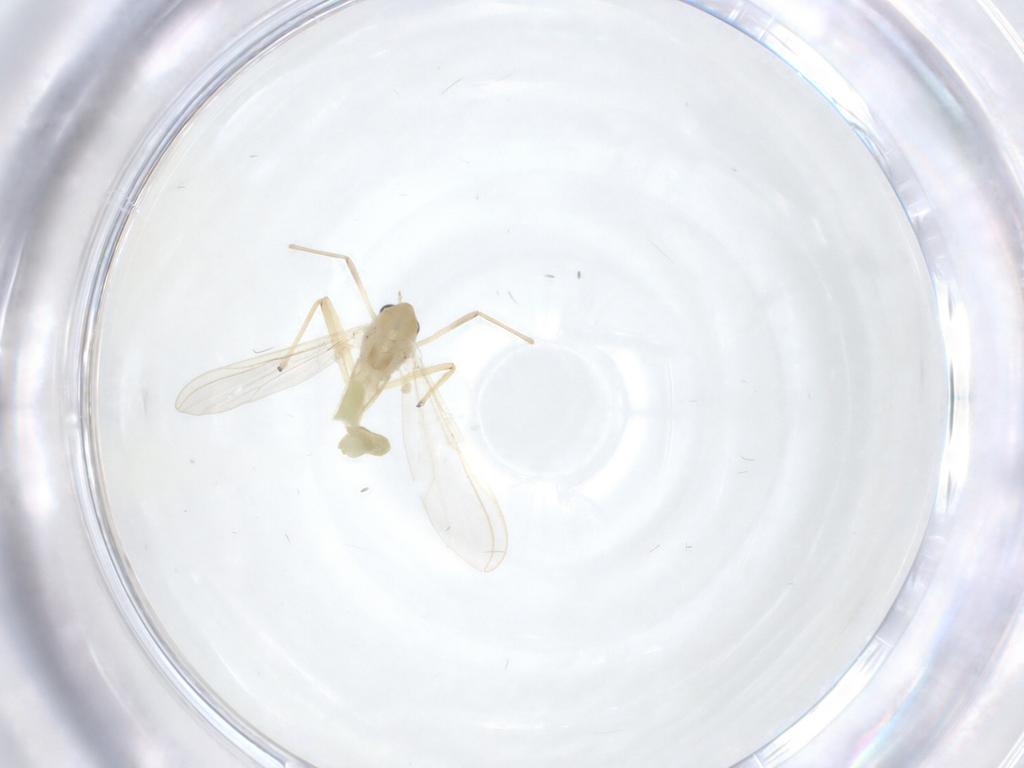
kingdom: Animalia
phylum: Arthropoda
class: Insecta
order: Diptera
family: Chironomidae
